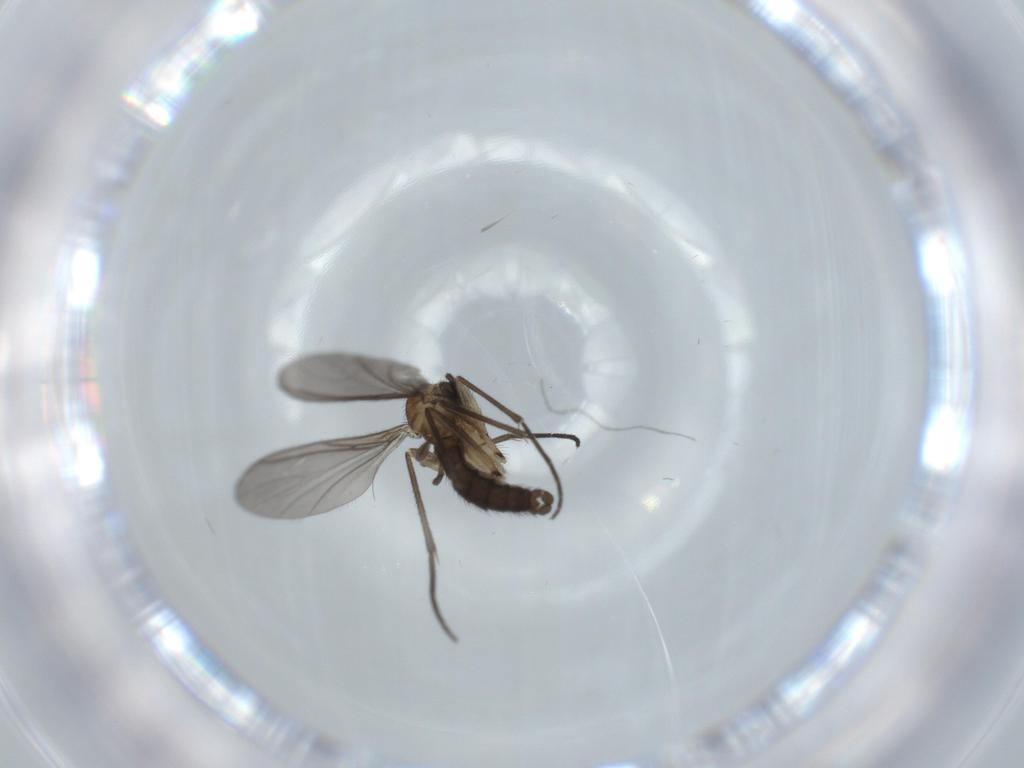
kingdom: Animalia
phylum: Arthropoda
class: Insecta
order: Diptera
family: Sciaridae
